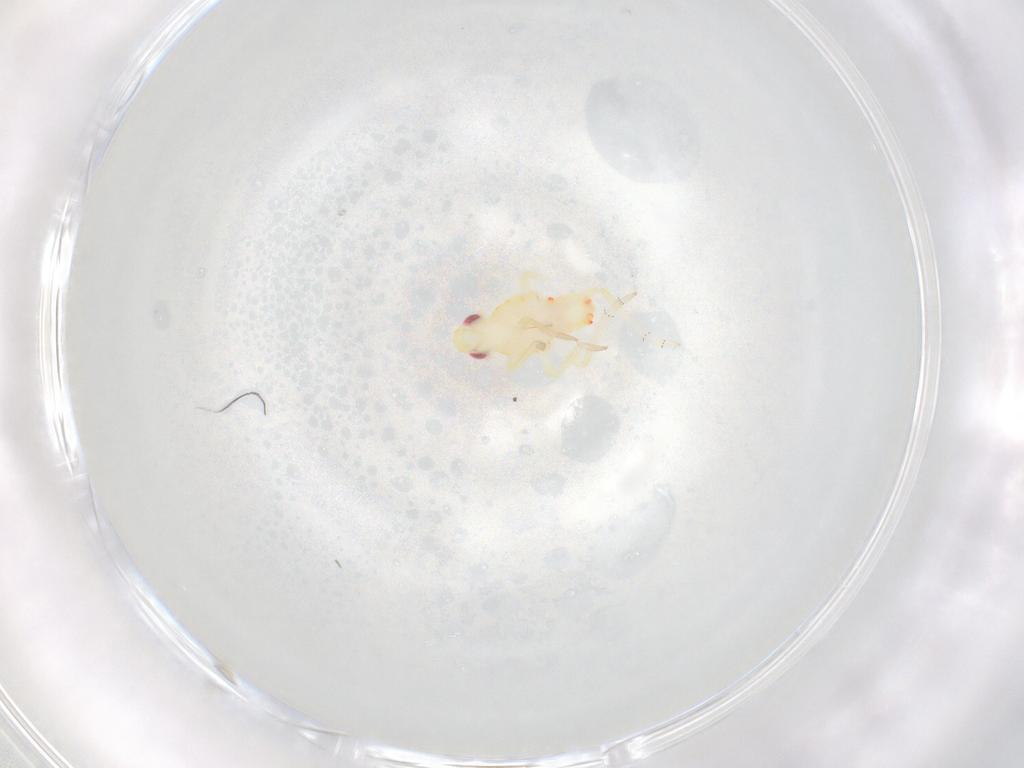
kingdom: Animalia
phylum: Arthropoda
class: Insecta
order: Hemiptera
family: Tropiduchidae
